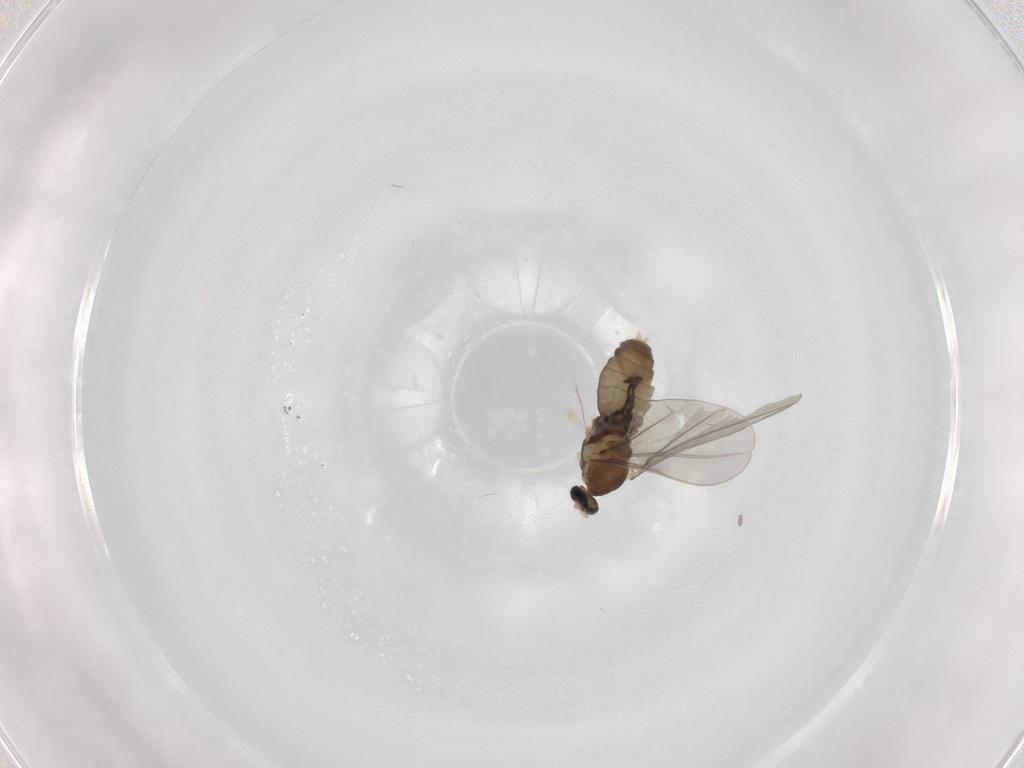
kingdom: Animalia
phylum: Arthropoda
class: Insecta
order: Diptera
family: Cecidomyiidae
